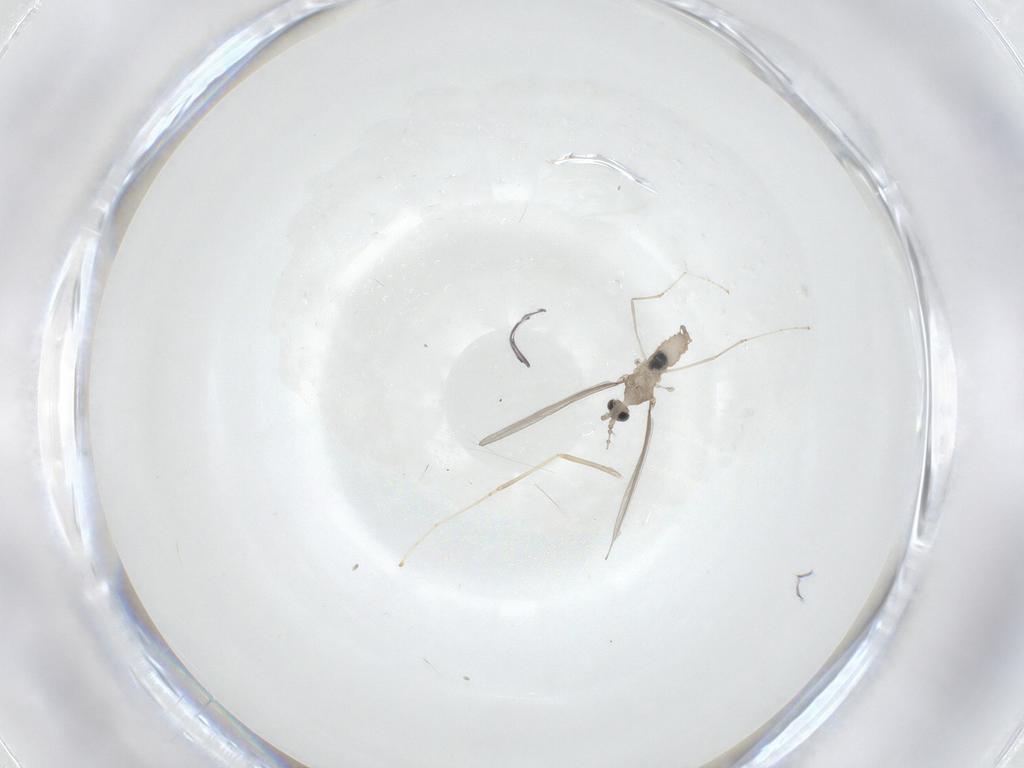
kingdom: Animalia
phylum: Arthropoda
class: Insecta
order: Diptera
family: Cecidomyiidae
